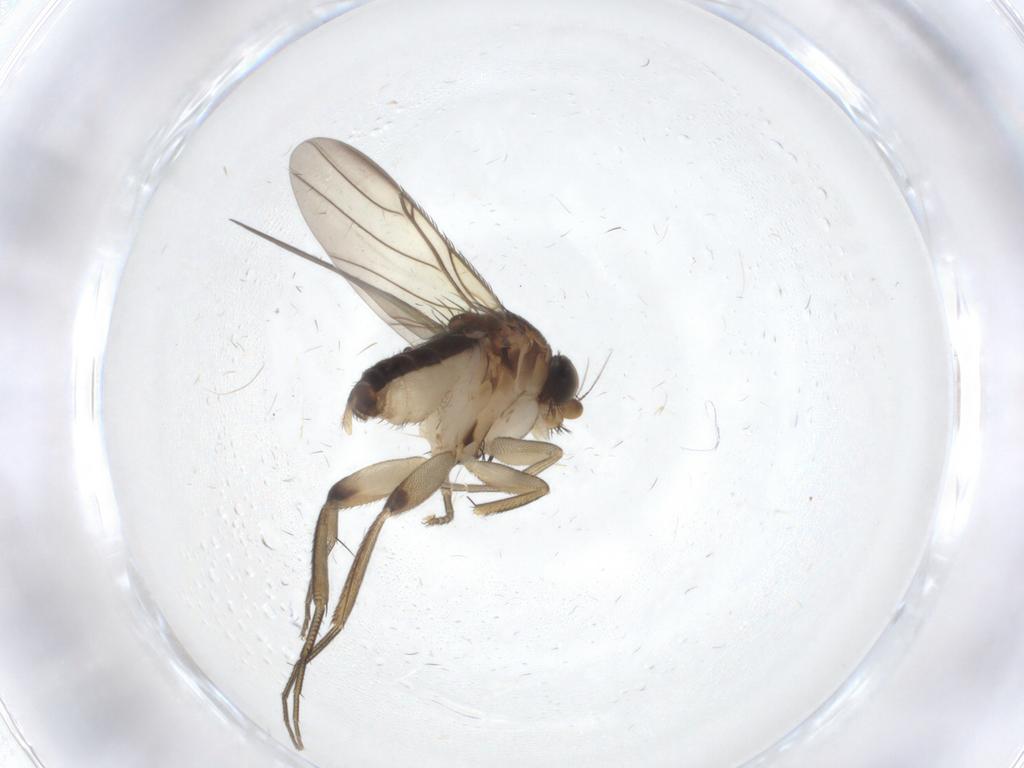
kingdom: Animalia
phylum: Arthropoda
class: Insecta
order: Diptera
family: Phoridae
